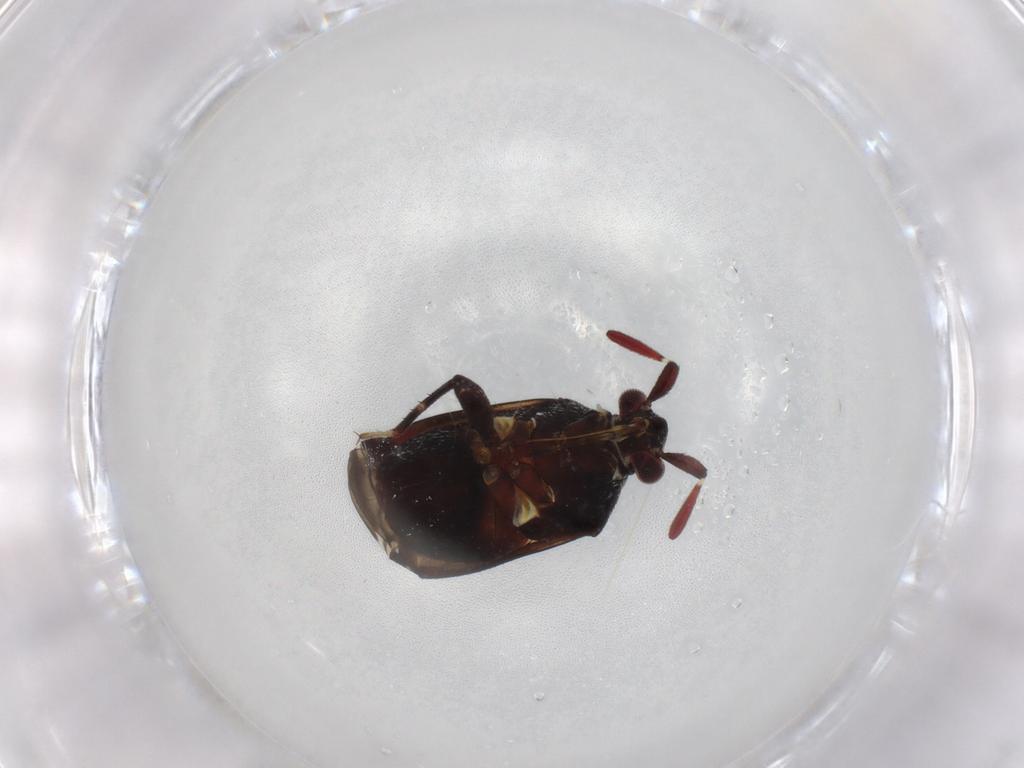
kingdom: Animalia
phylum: Arthropoda
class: Insecta
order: Hemiptera
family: Miridae
